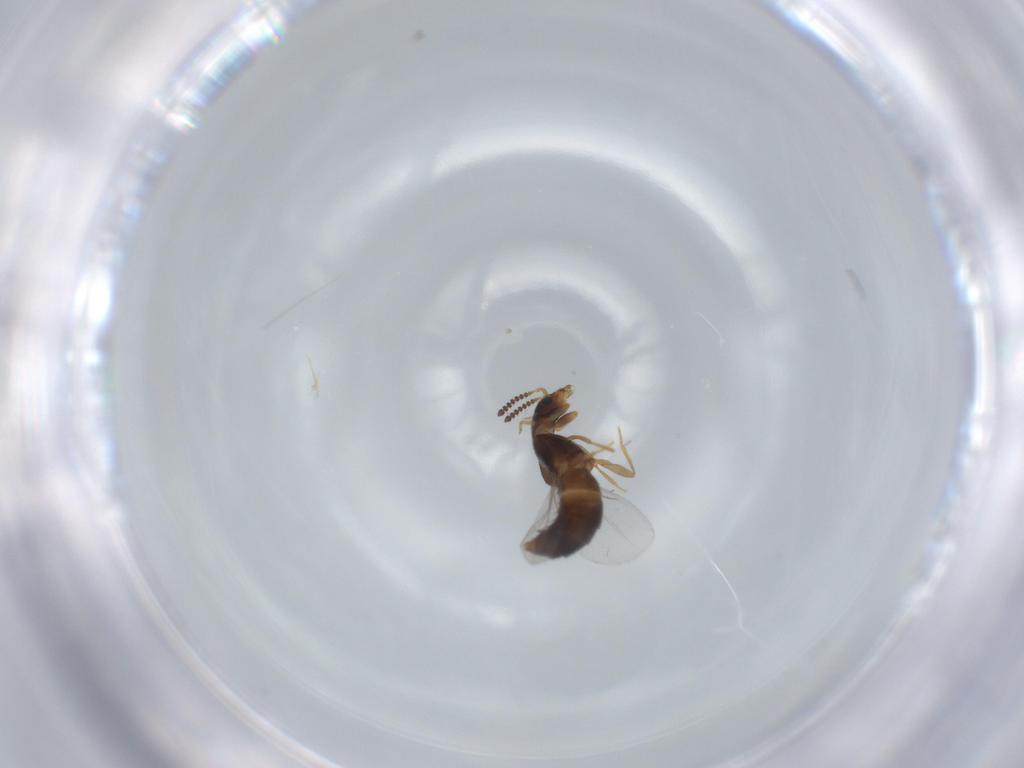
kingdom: Animalia
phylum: Arthropoda
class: Insecta
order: Coleoptera
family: Staphylinidae
